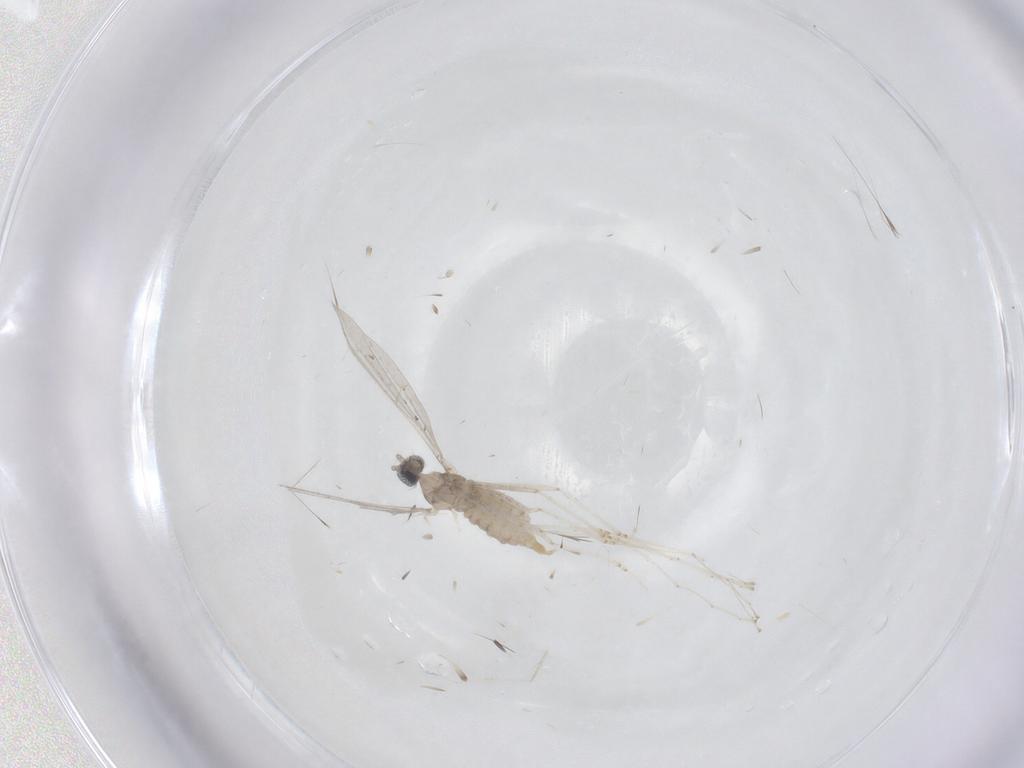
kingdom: Animalia
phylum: Arthropoda
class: Insecta
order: Diptera
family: Cecidomyiidae
